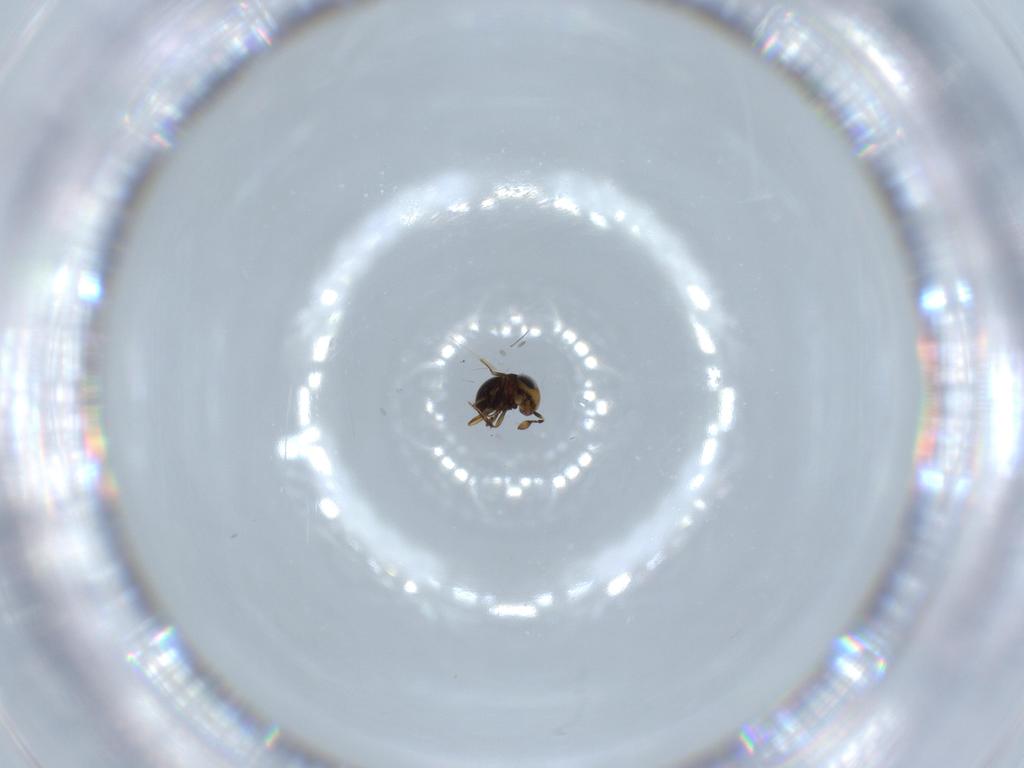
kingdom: Animalia
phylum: Arthropoda
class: Insecta
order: Hymenoptera
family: Scelionidae
